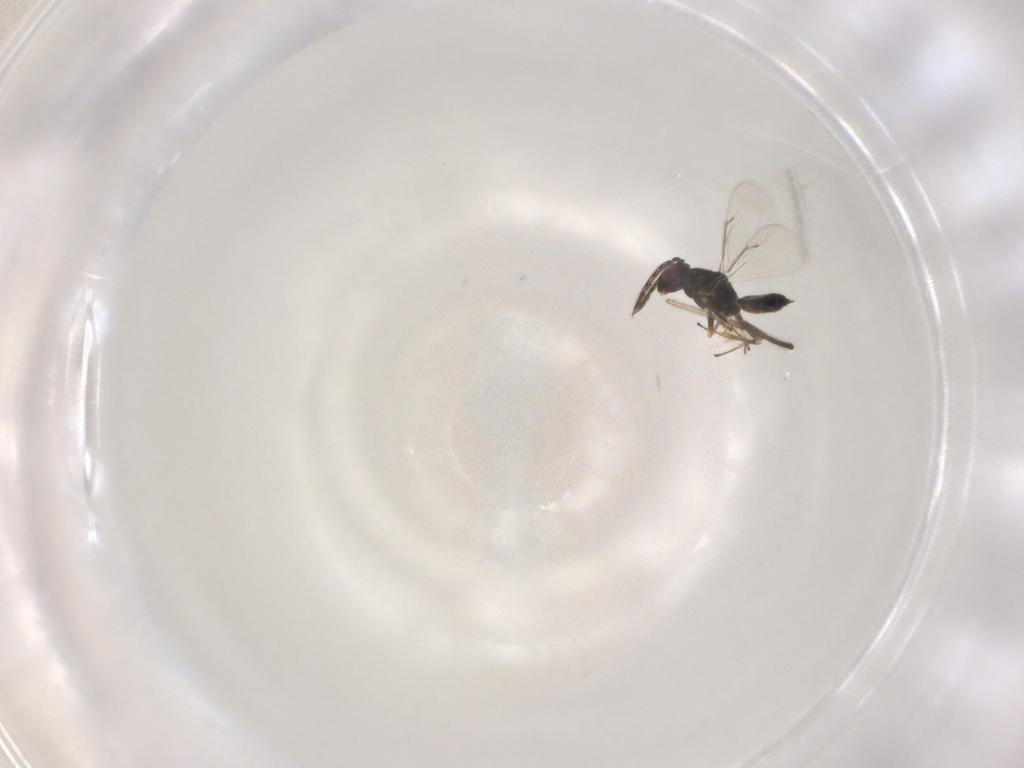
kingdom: Animalia
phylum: Arthropoda
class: Insecta
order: Hymenoptera
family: Eulophidae
